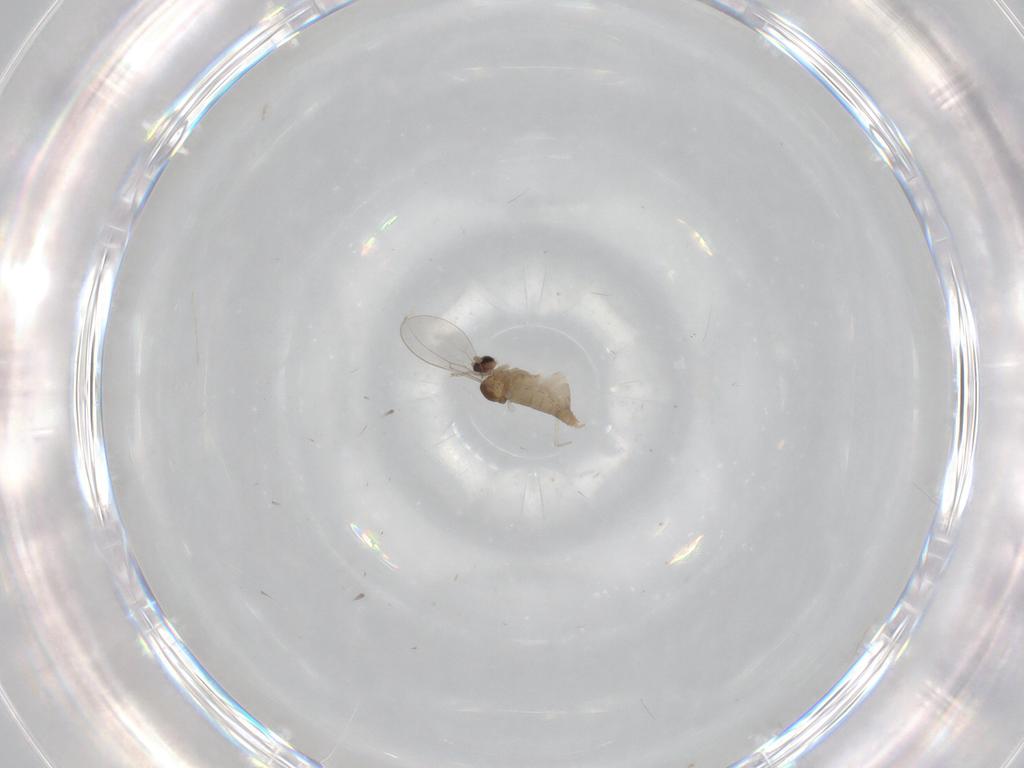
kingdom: Animalia
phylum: Arthropoda
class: Insecta
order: Diptera
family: Cecidomyiidae
